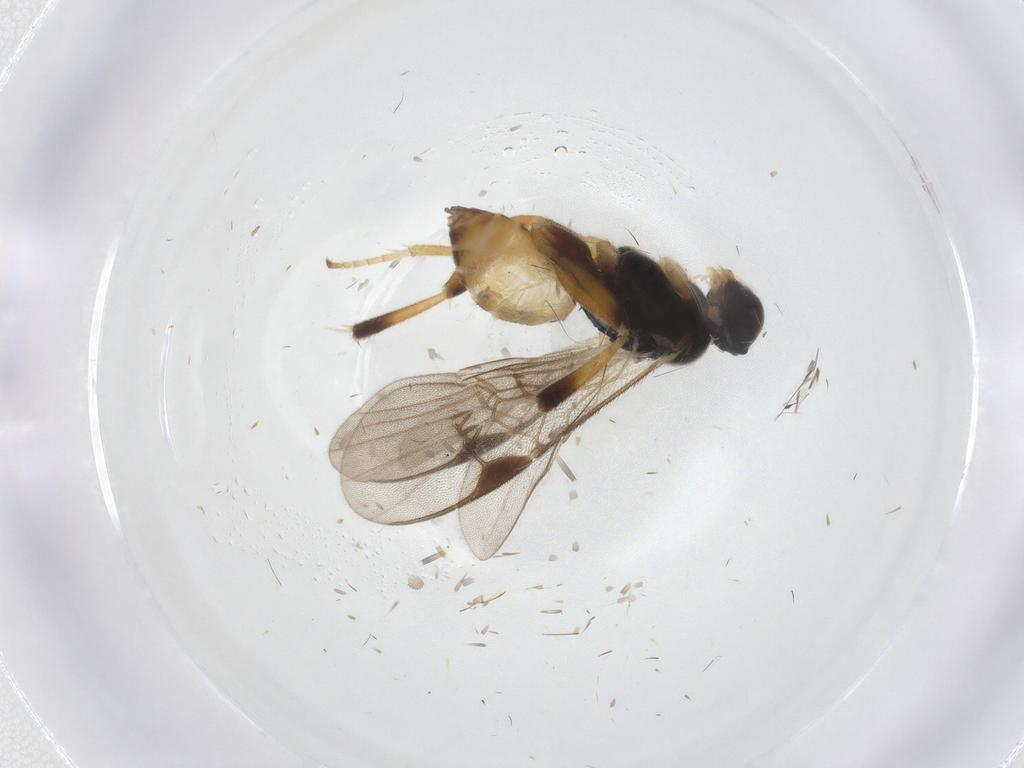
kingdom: Animalia
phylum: Arthropoda
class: Insecta
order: Hymenoptera
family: Braconidae
